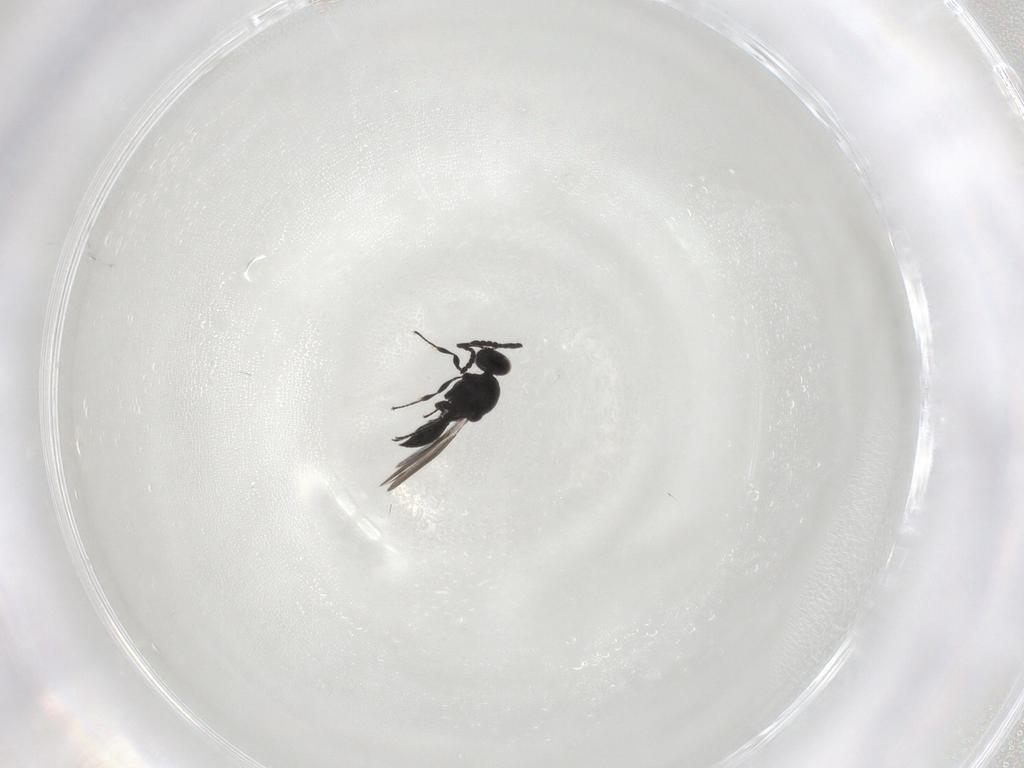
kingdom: Animalia
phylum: Arthropoda
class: Insecta
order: Hymenoptera
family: Platygastridae
